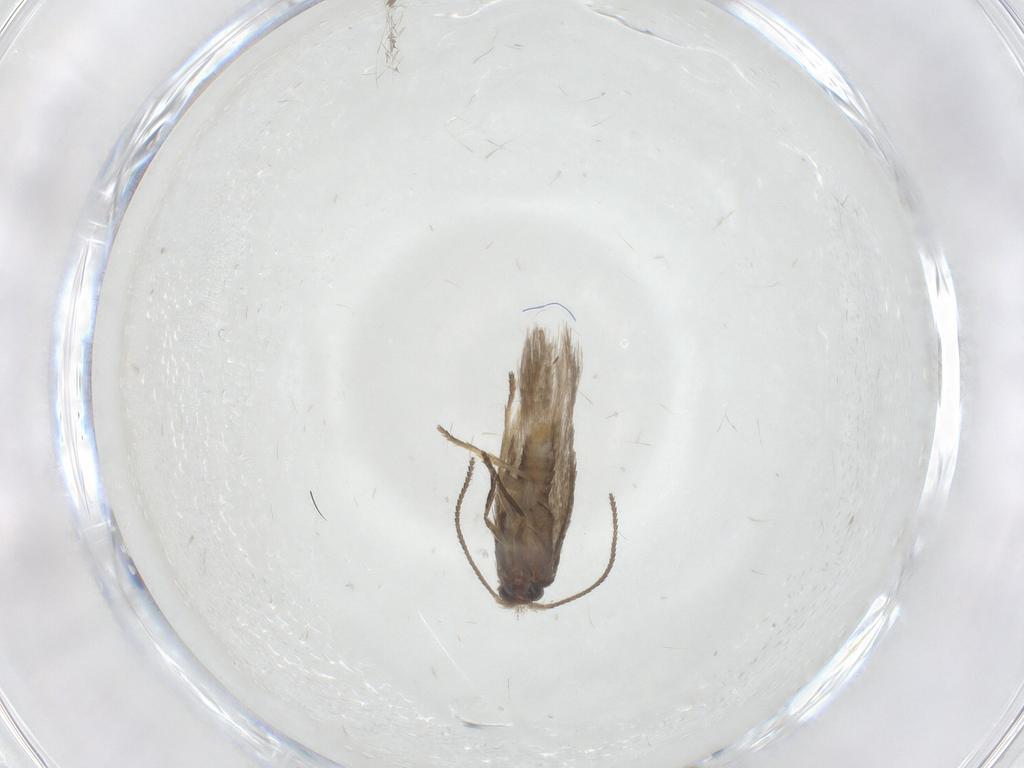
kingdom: Animalia
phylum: Arthropoda
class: Insecta
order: Lepidoptera
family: Nepticulidae
